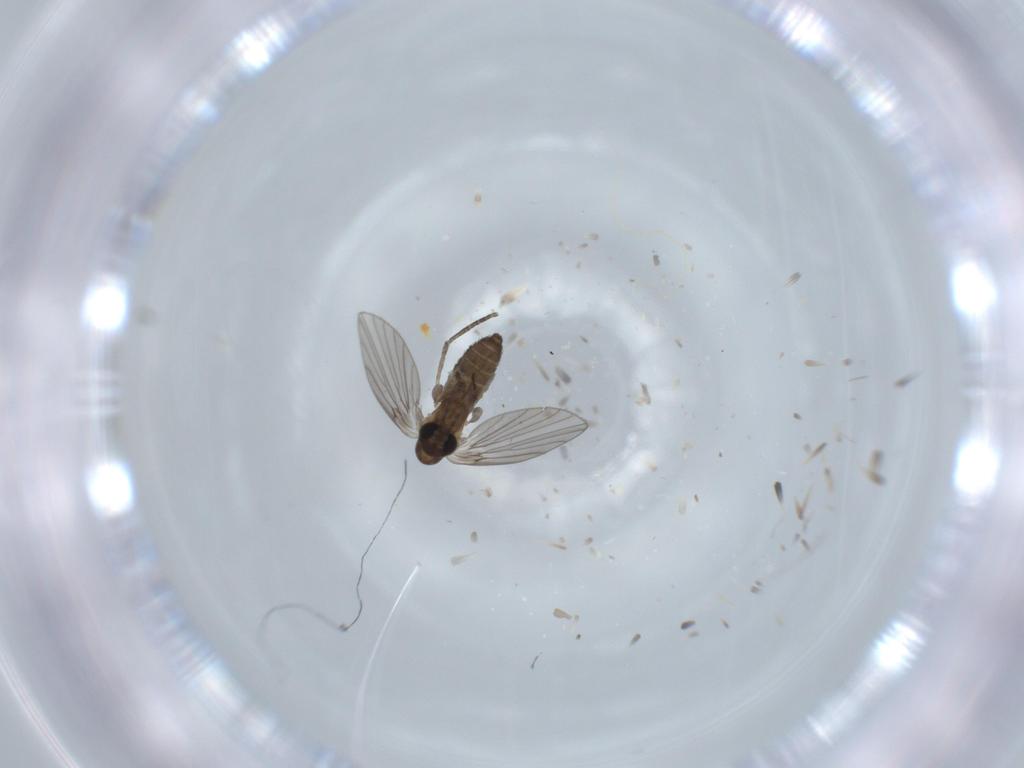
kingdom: Animalia
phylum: Arthropoda
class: Insecta
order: Diptera
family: Psychodidae
